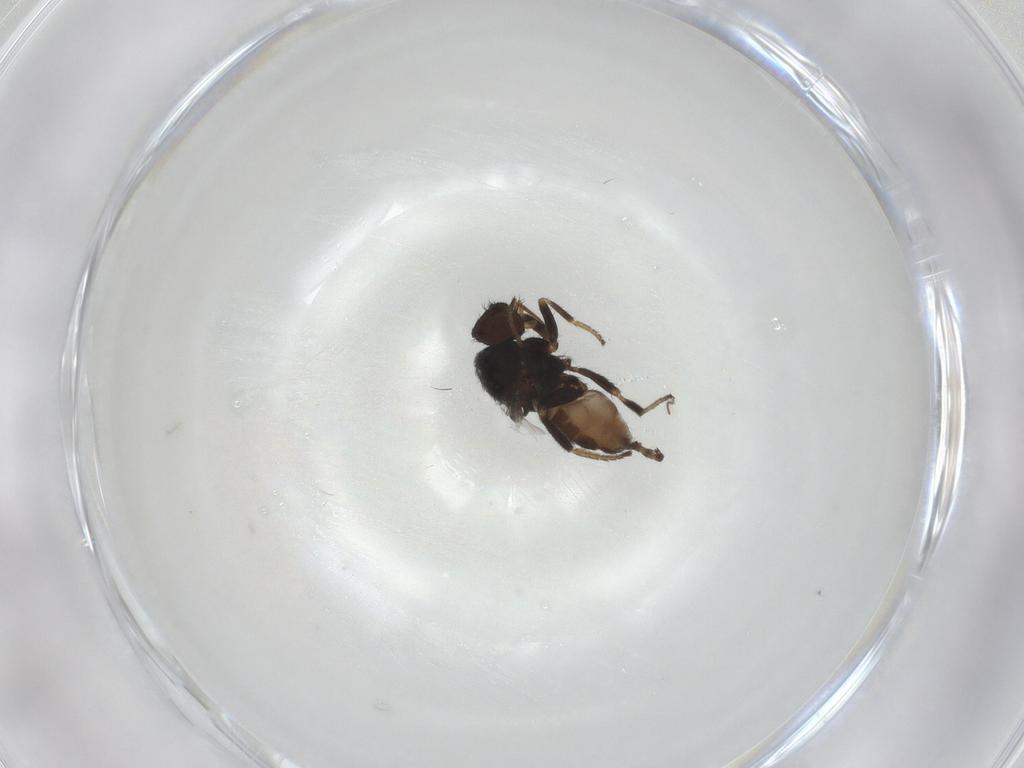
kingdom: Animalia
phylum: Arthropoda
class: Insecta
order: Diptera
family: Milichiidae
